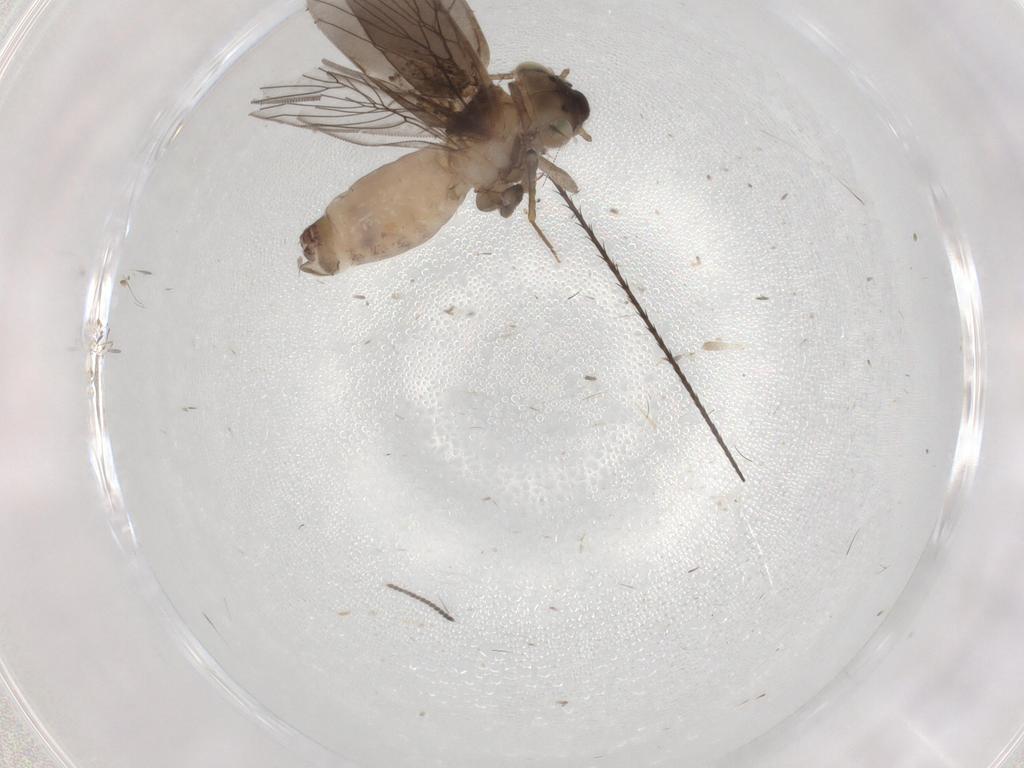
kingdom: Animalia
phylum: Arthropoda
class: Insecta
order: Psocodea
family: Lepidopsocidae
